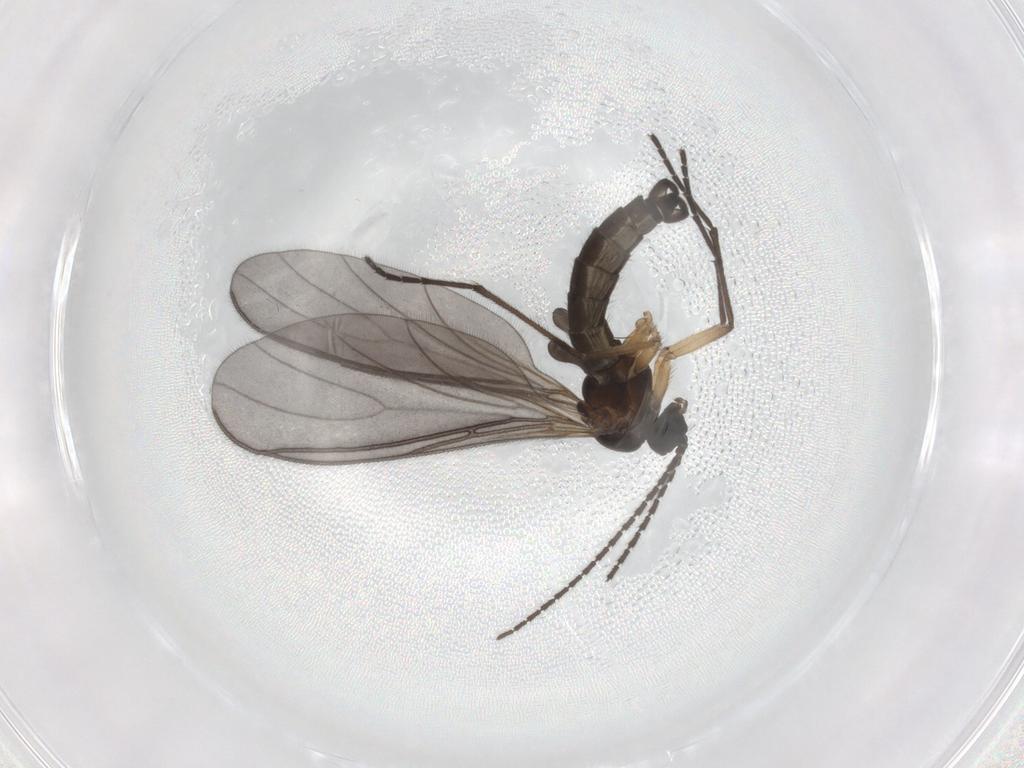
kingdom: Animalia
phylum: Arthropoda
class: Insecta
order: Diptera
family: Sciaridae
